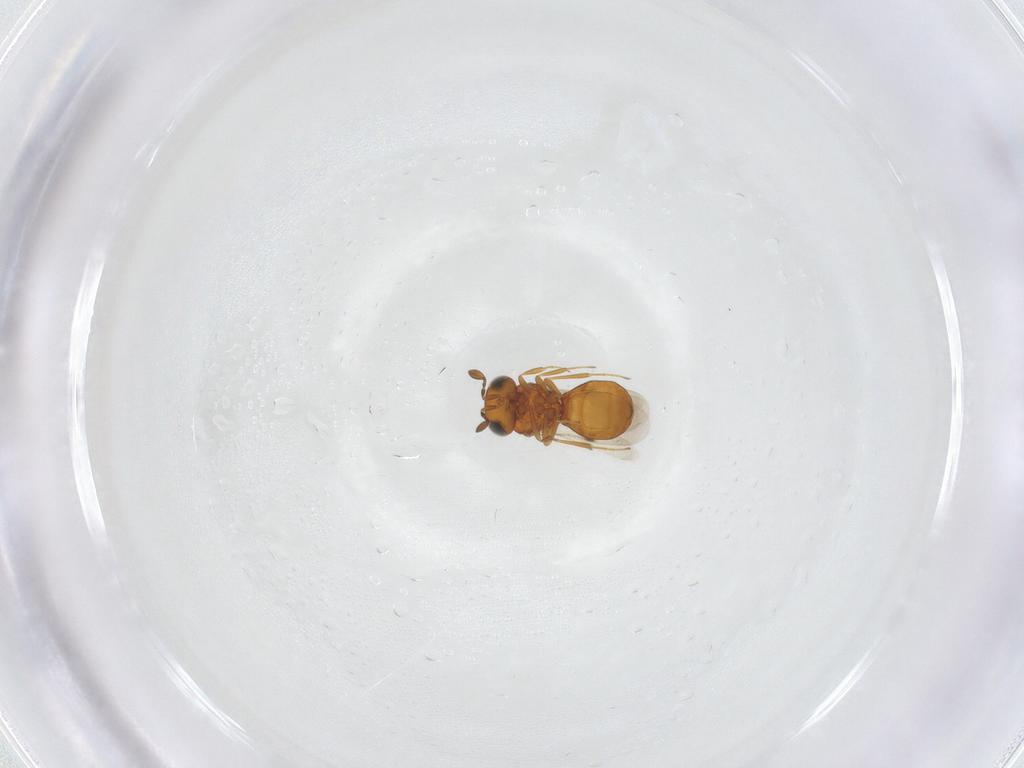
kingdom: Animalia
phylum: Arthropoda
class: Insecta
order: Hymenoptera
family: Scelionidae
